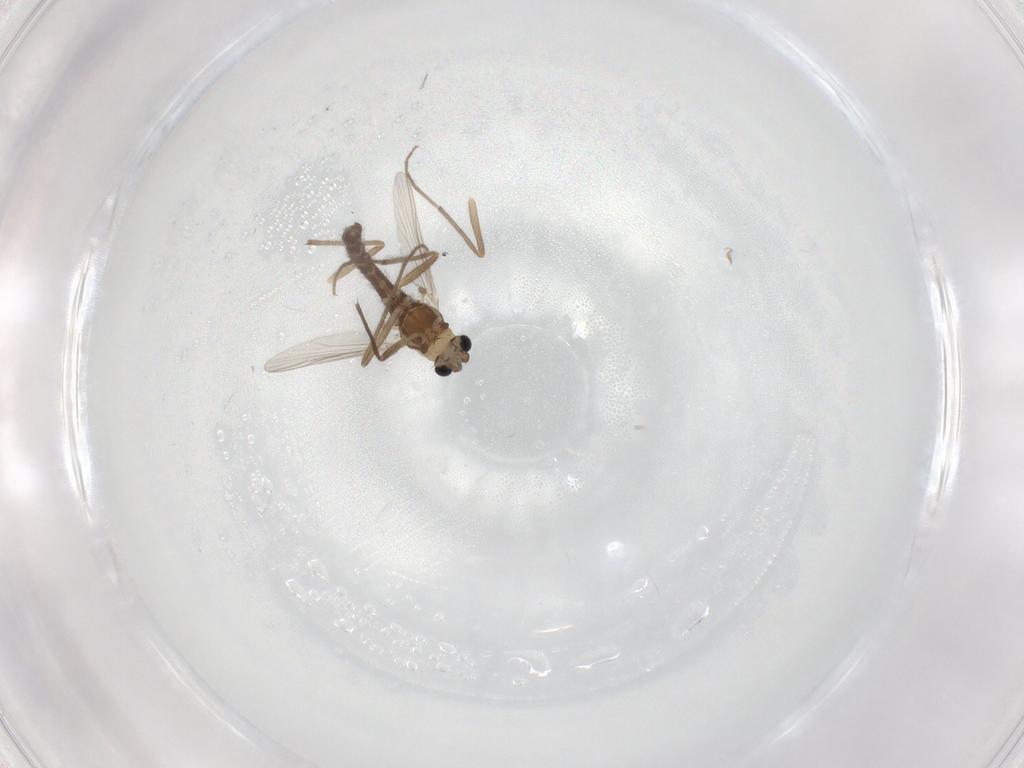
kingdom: Animalia
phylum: Arthropoda
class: Insecta
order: Diptera
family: Chironomidae
